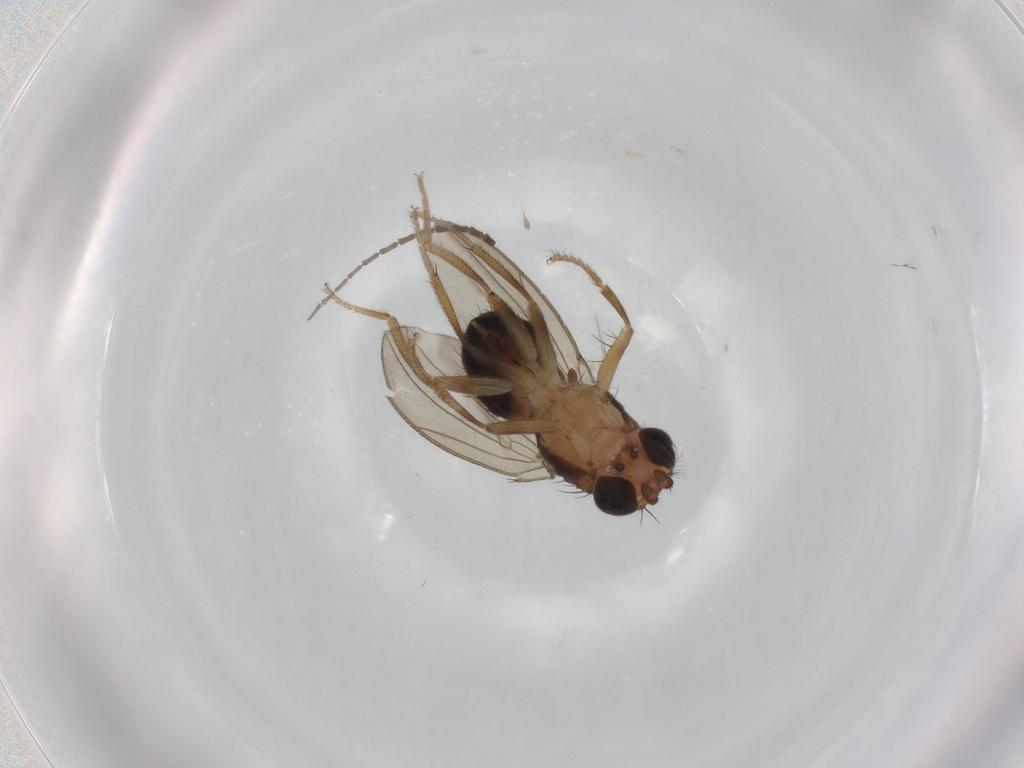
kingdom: Animalia
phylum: Arthropoda
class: Insecta
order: Diptera
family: Drosophilidae
